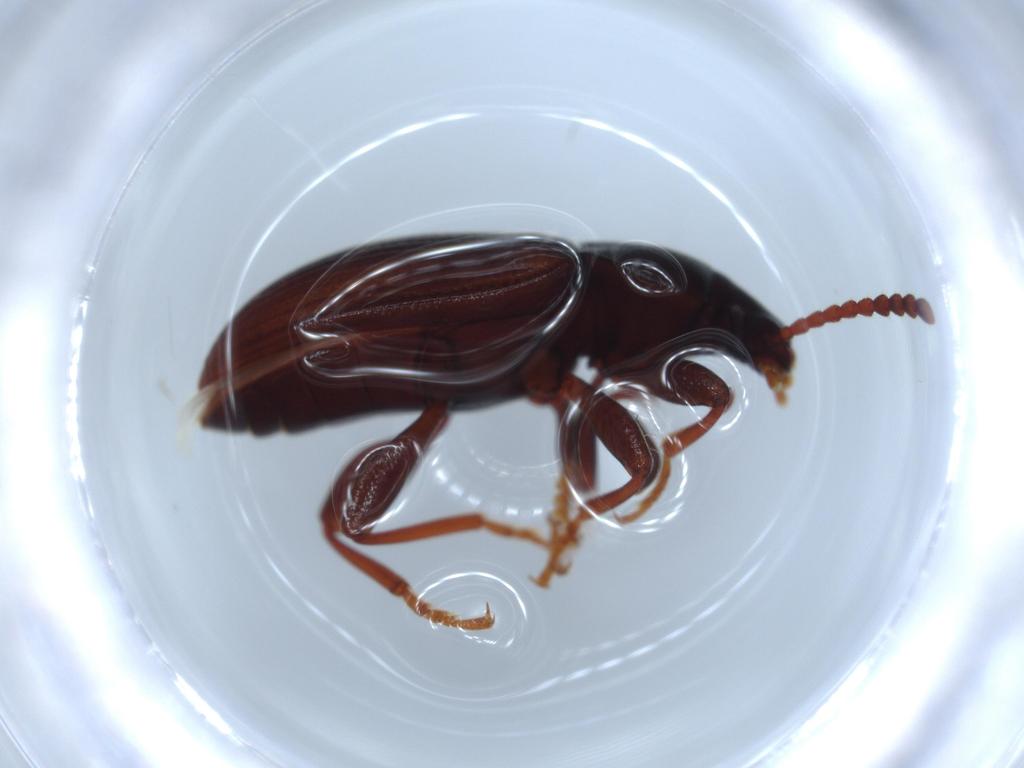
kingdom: Animalia
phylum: Arthropoda
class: Insecta
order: Coleoptera
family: Tenebrionidae
